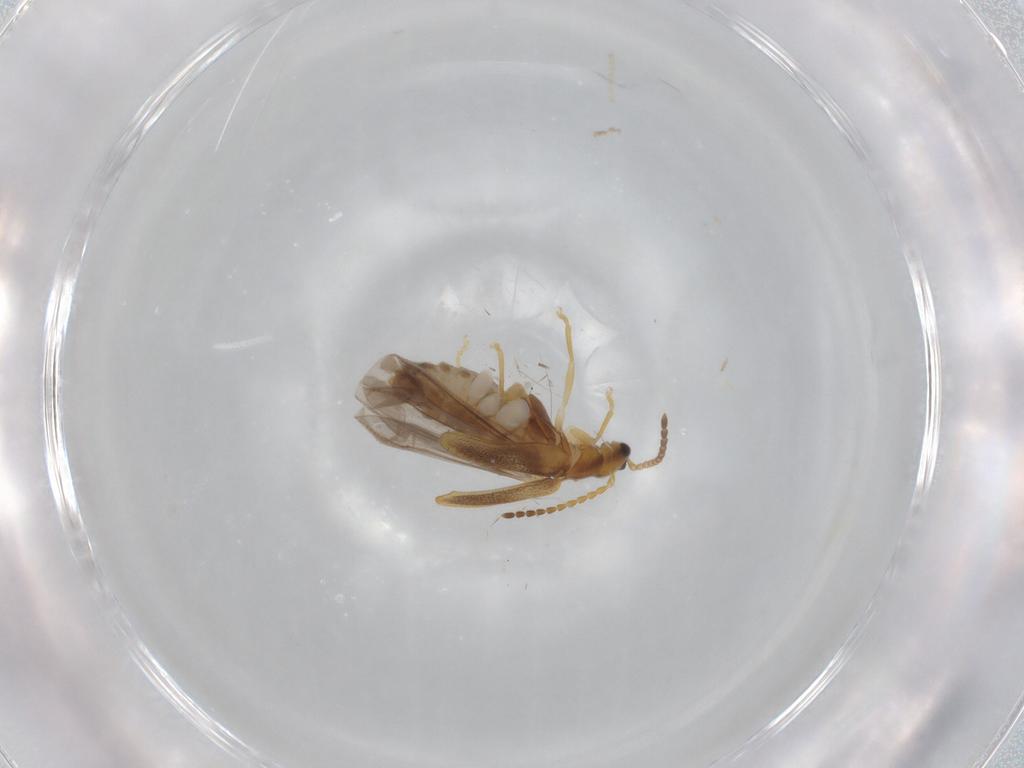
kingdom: Animalia
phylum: Arthropoda
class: Insecta
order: Coleoptera
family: Cantharidae
